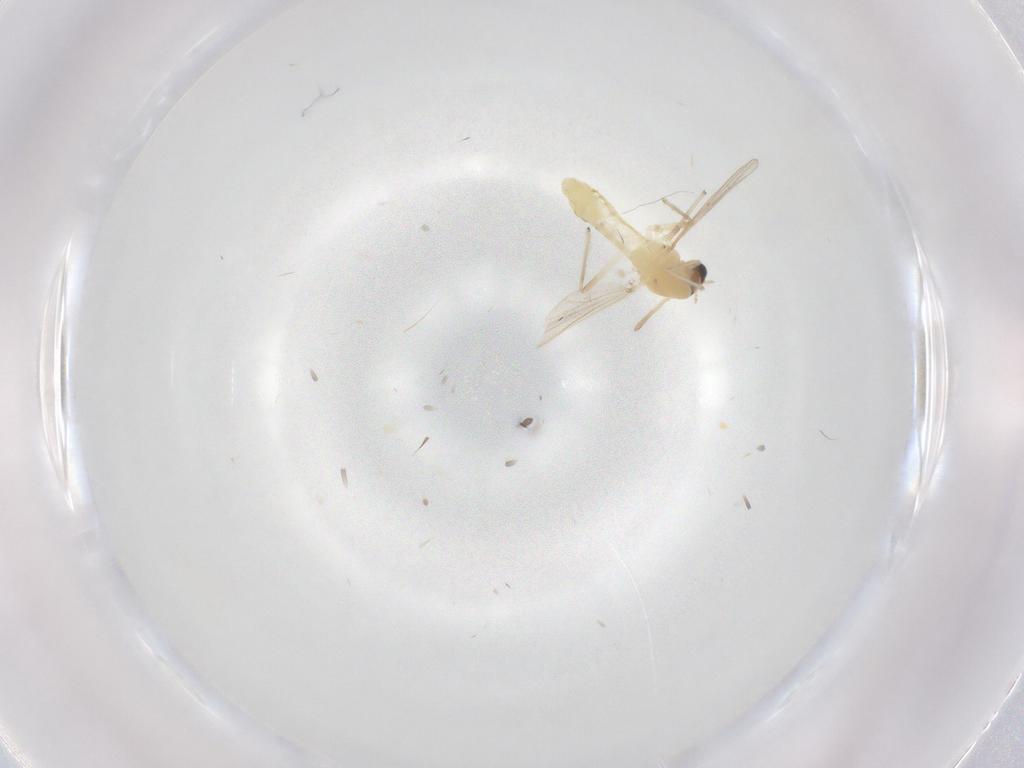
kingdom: Animalia
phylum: Arthropoda
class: Insecta
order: Diptera
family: Chironomidae
